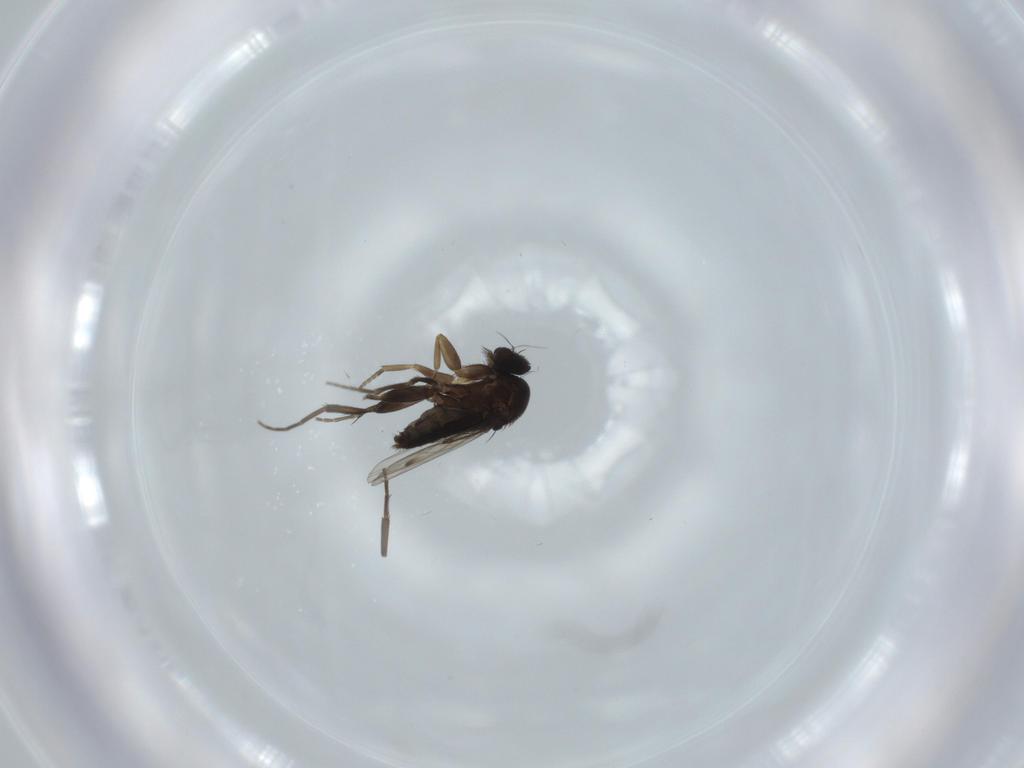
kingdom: Animalia
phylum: Arthropoda
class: Insecta
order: Diptera
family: Phoridae
